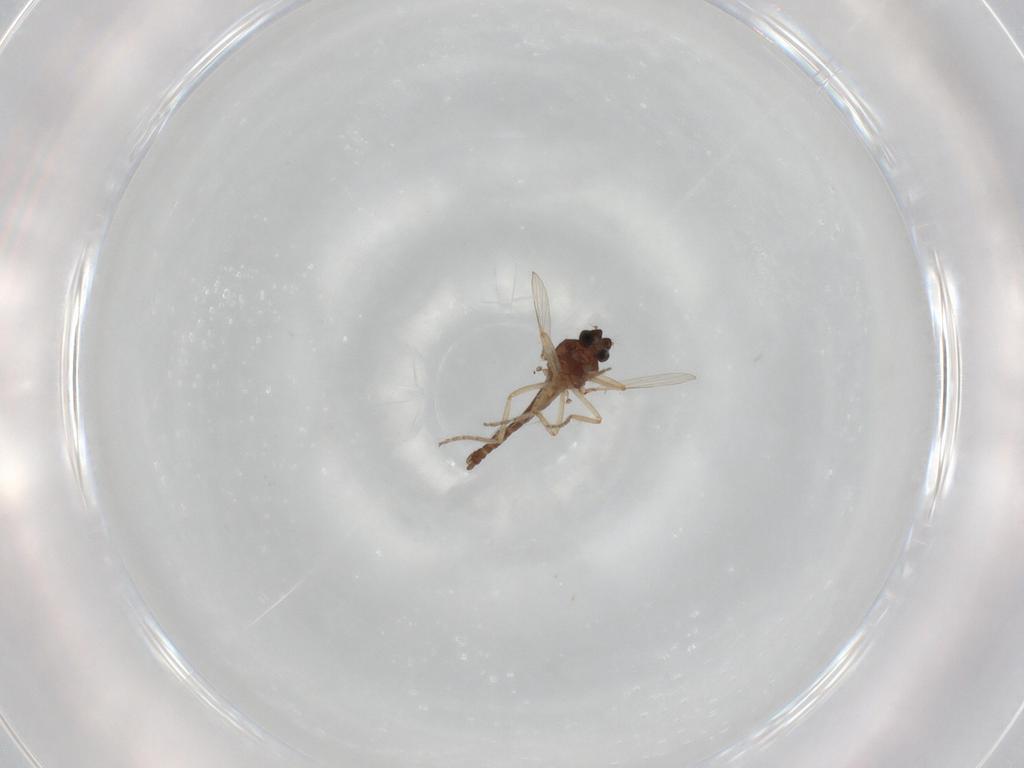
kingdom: Animalia
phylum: Arthropoda
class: Insecta
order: Diptera
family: Ceratopogonidae
